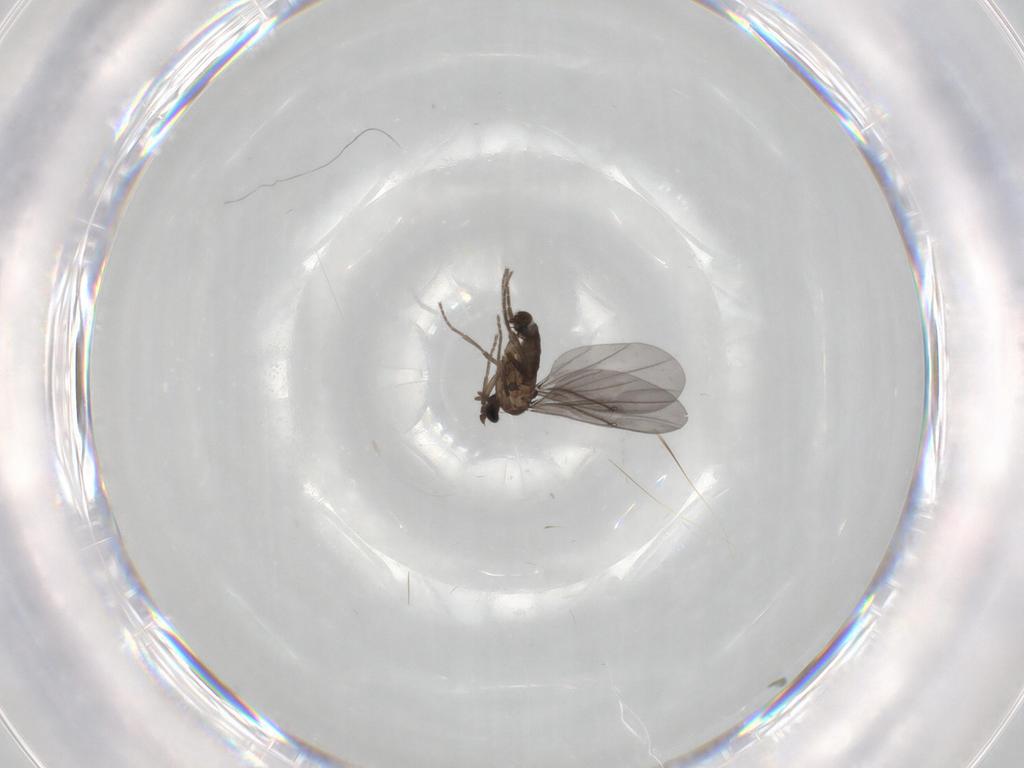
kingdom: Animalia
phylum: Arthropoda
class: Insecta
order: Diptera
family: Phoridae
